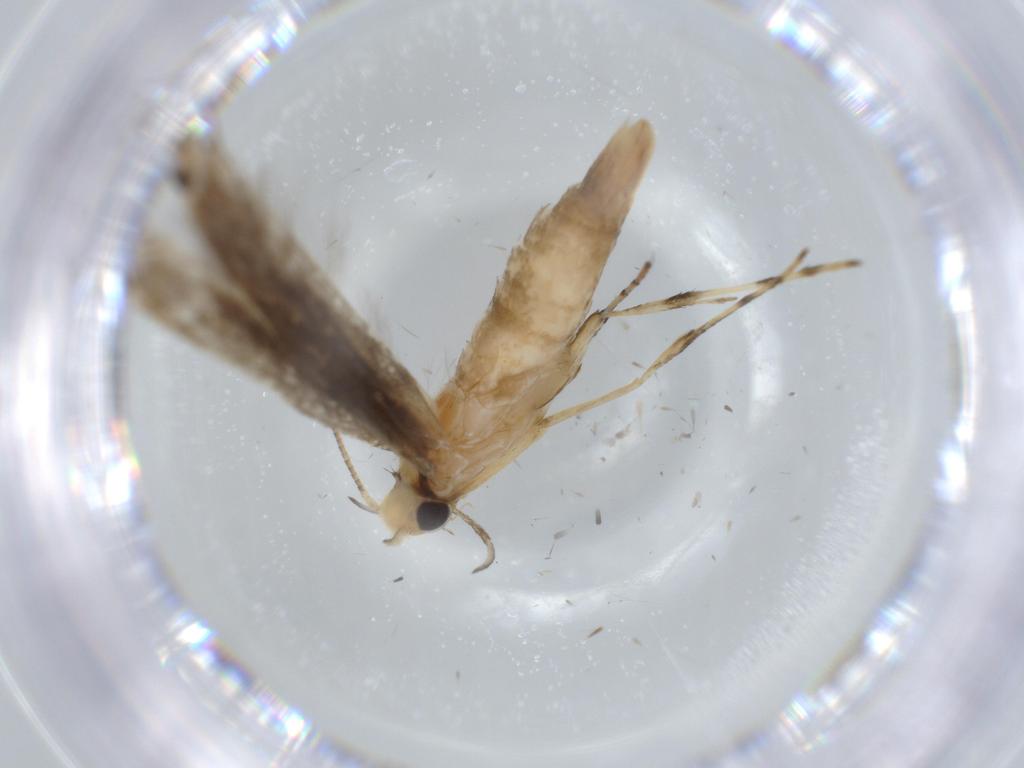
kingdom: Animalia
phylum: Arthropoda
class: Insecta
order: Lepidoptera
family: Gracillariidae
